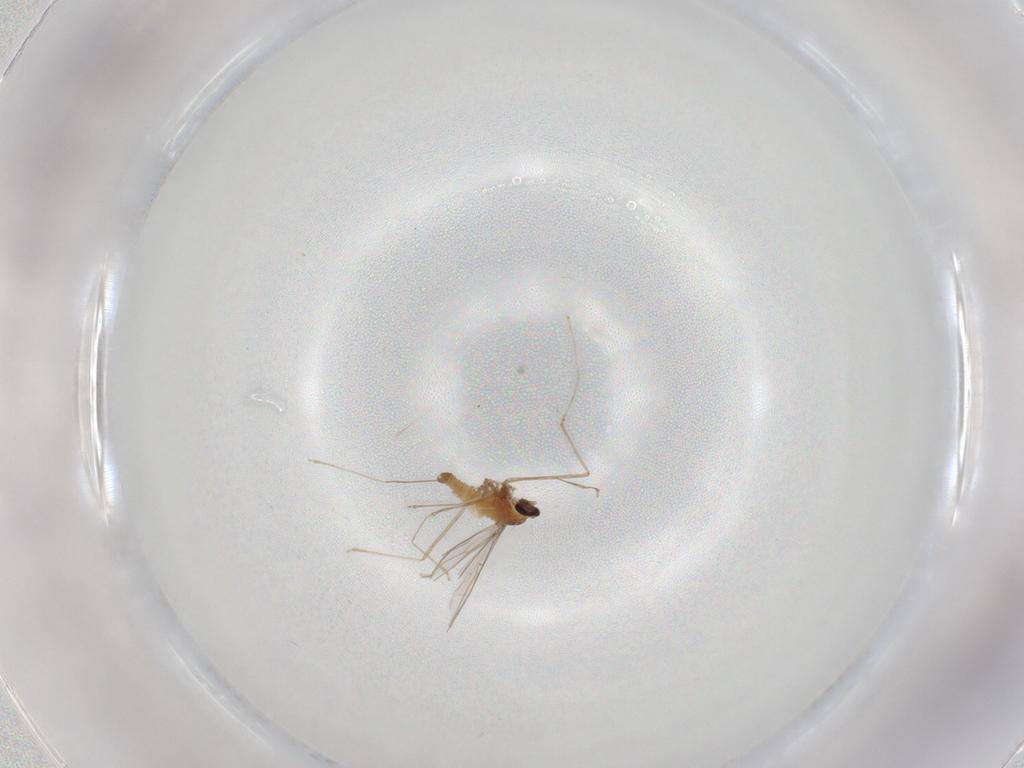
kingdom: Animalia
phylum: Arthropoda
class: Insecta
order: Diptera
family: Cecidomyiidae
